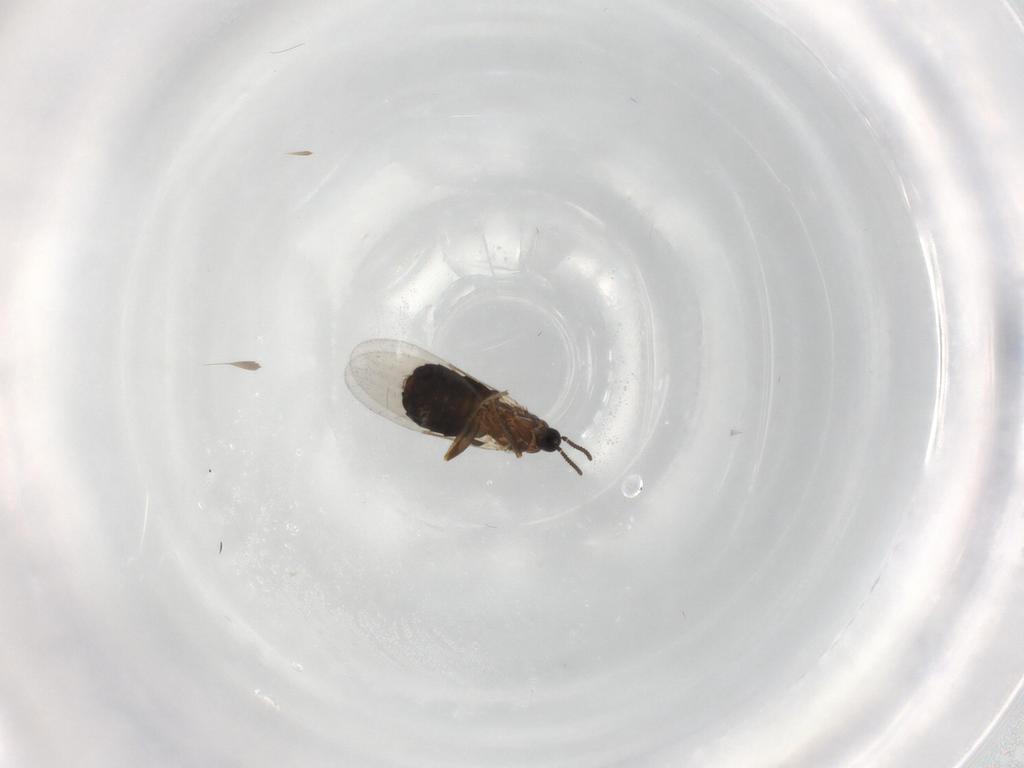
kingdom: Animalia
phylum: Arthropoda
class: Insecta
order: Diptera
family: Scatopsidae
